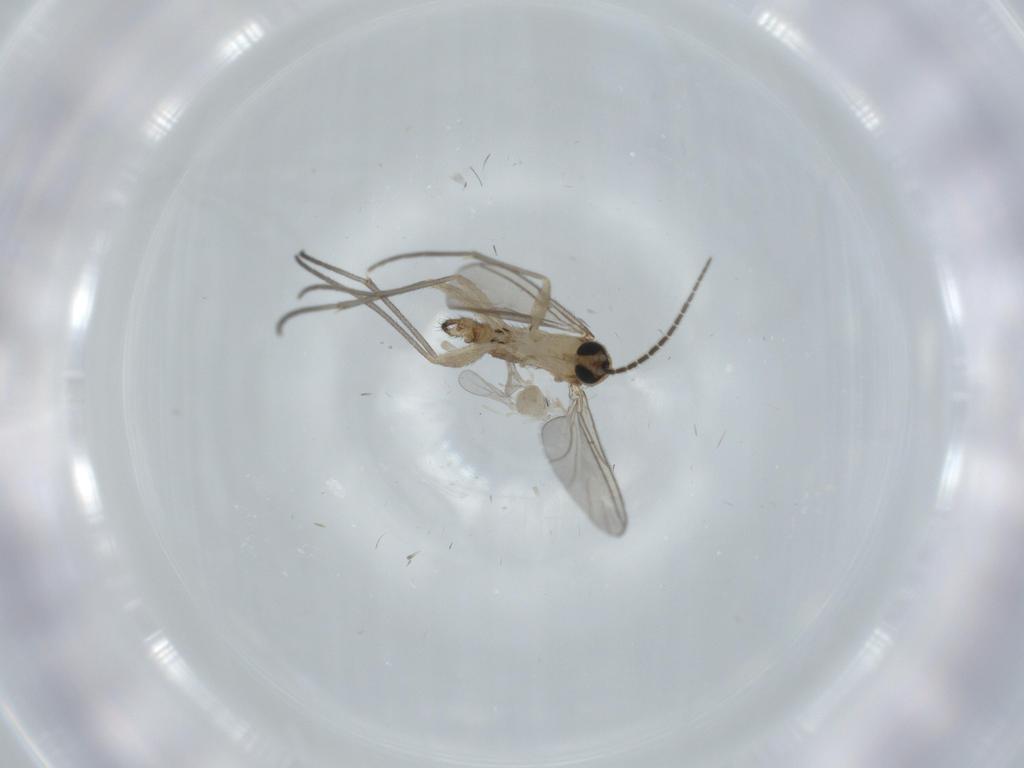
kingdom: Animalia
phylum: Arthropoda
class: Insecta
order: Diptera
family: Sciaridae
